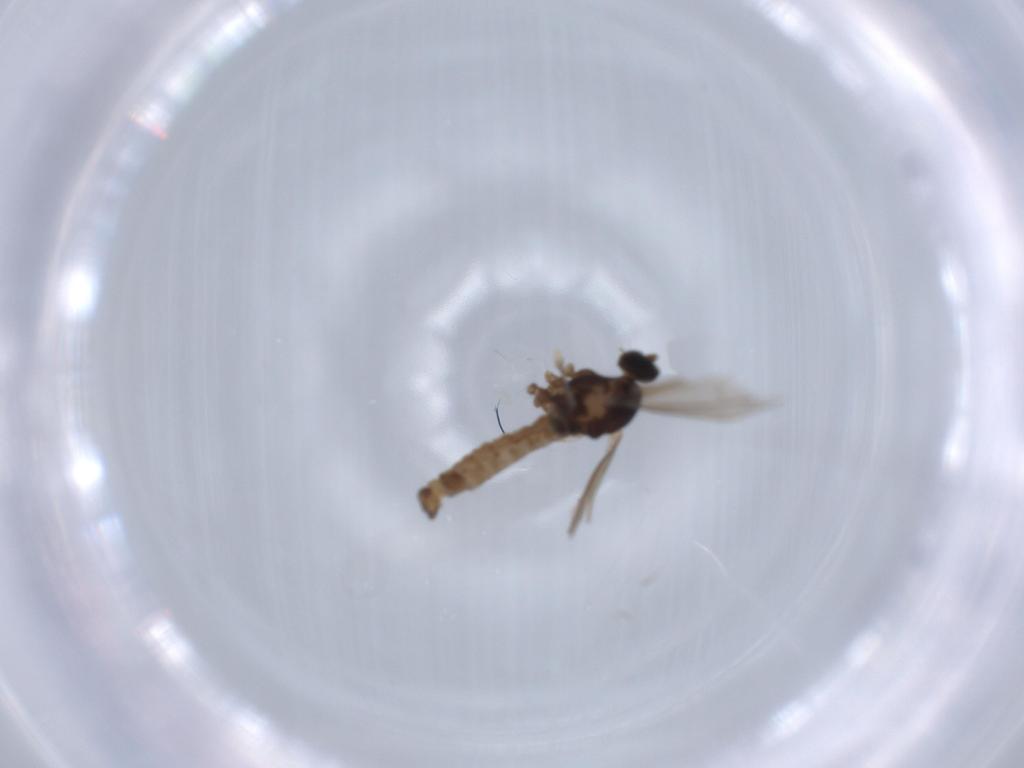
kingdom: Animalia
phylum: Arthropoda
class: Insecta
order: Diptera
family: Cecidomyiidae
